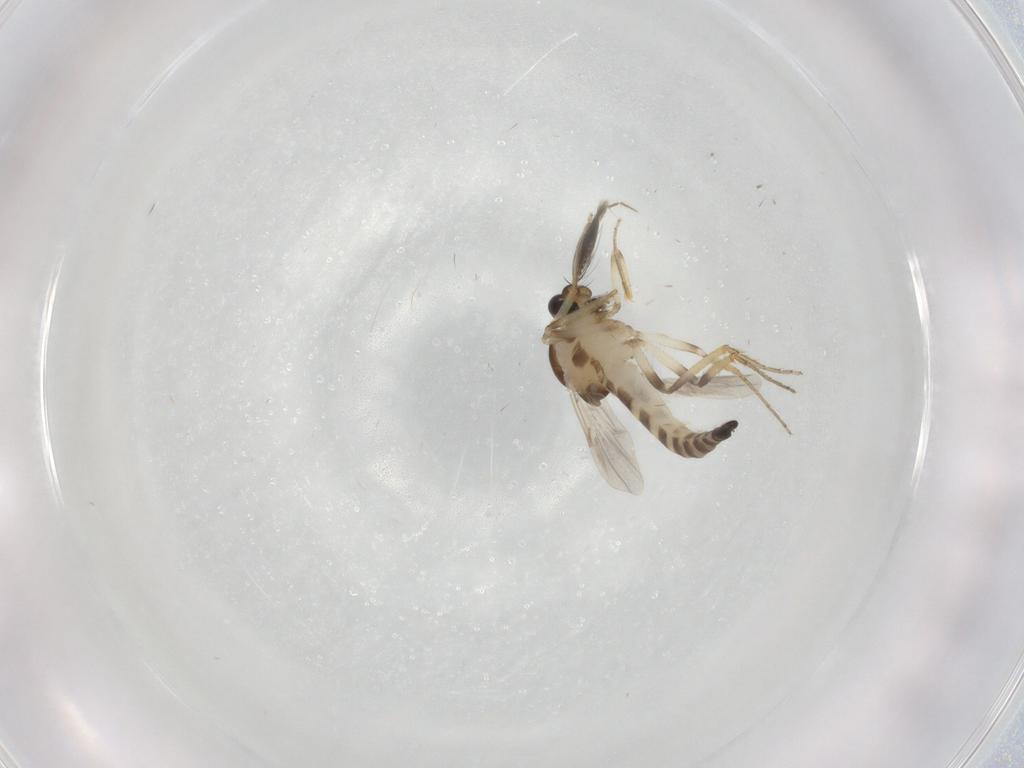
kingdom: Animalia
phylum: Arthropoda
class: Insecta
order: Diptera
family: Ceratopogonidae
